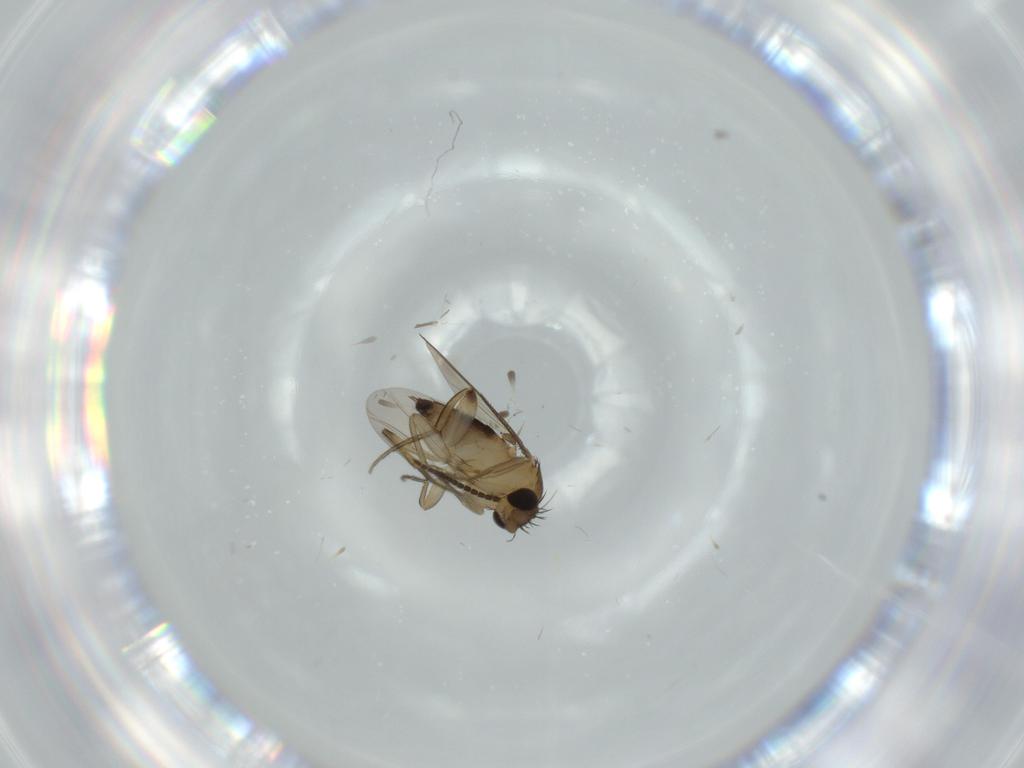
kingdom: Animalia
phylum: Arthropoda
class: Insecta
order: Diptera
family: Phoridae
